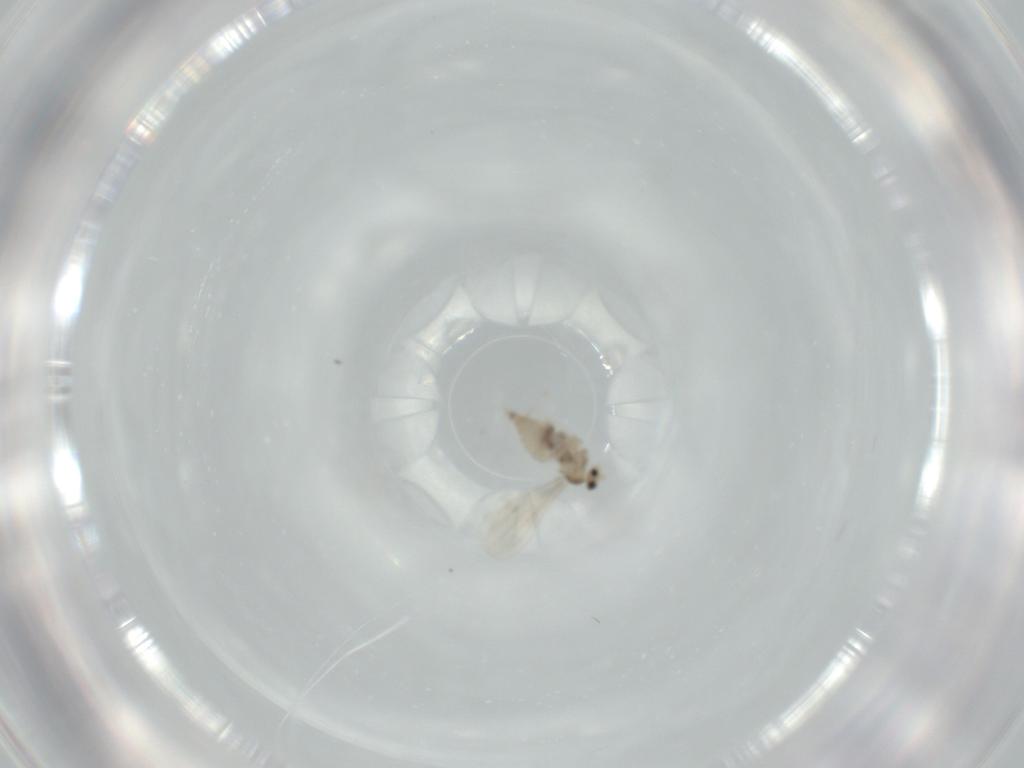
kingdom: Animalia
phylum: Arthropoda
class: Insecta
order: Diptera
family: Cecidomyiidae
